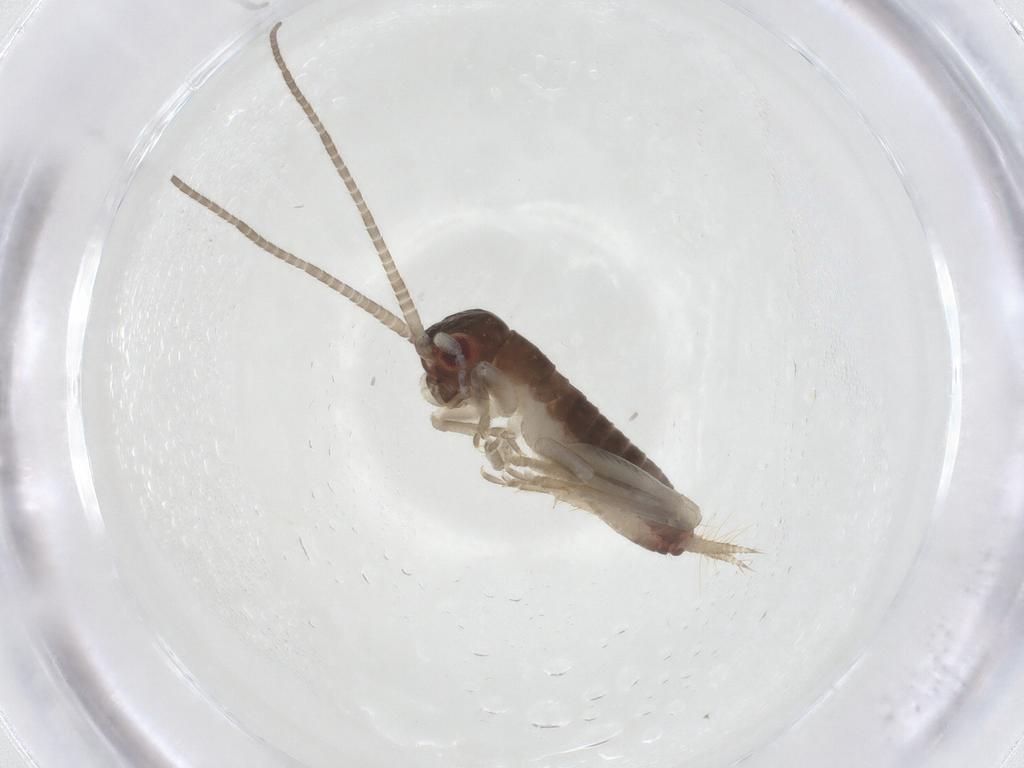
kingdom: Animalia
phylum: Arthropoda
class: Insecta
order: Orthoptera
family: Gryllidae
